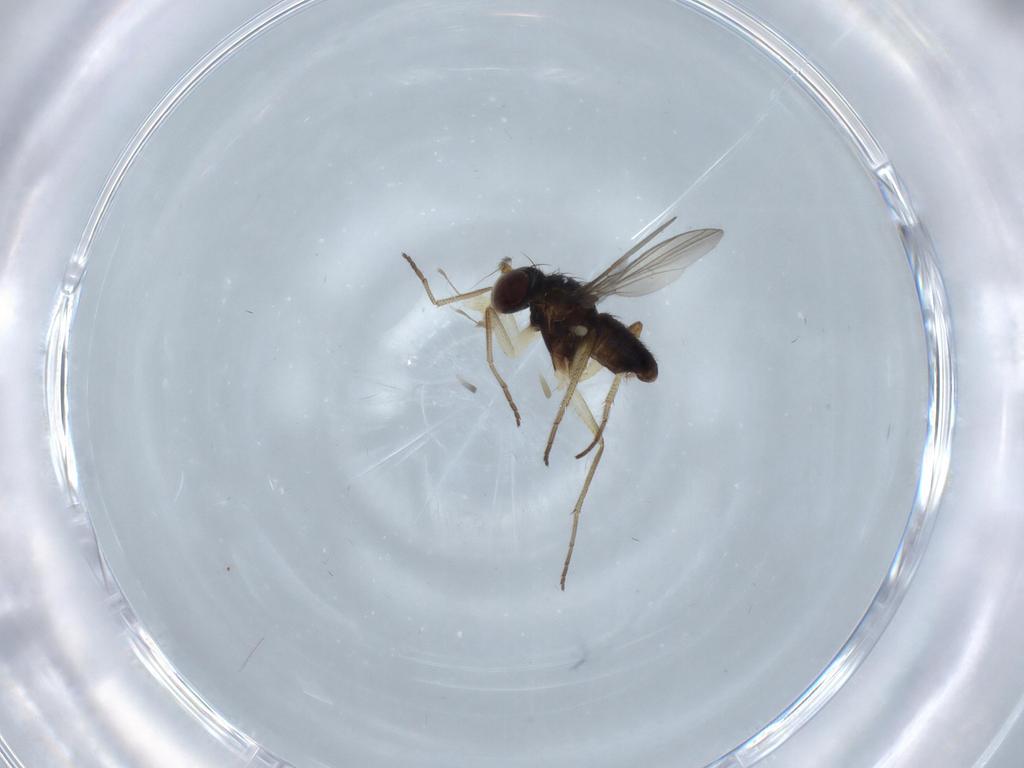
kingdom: Animalia
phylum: Arthropoda
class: Insecta
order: Diptera
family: Dolichopodidae
